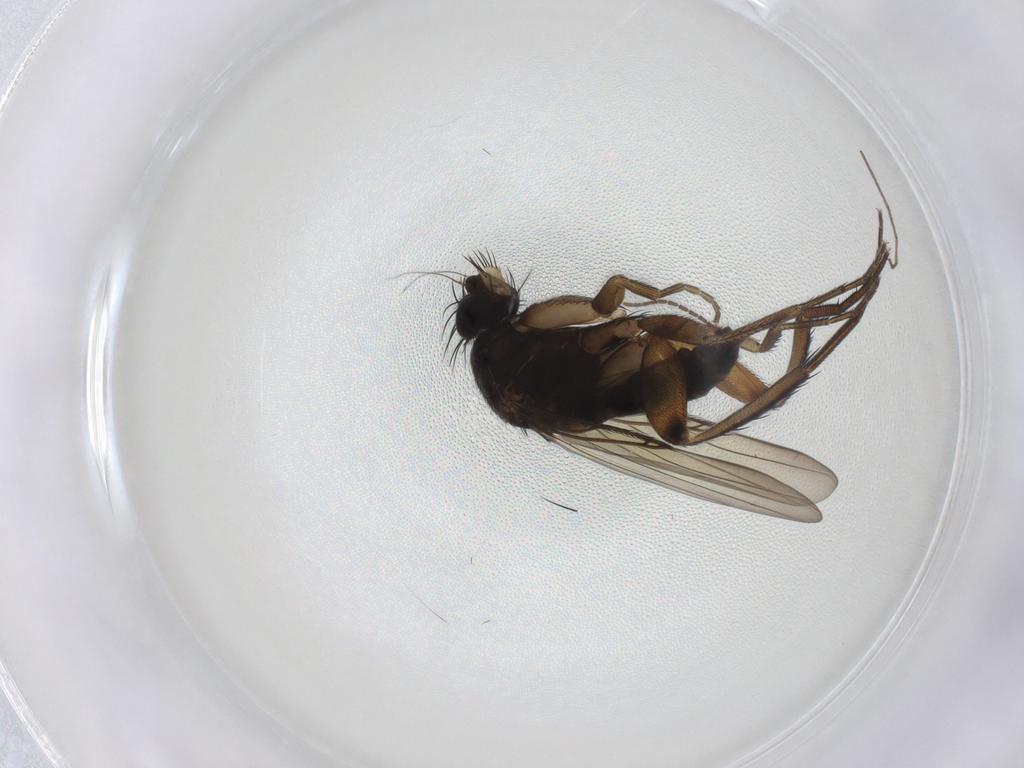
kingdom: Animalia
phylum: Arthropoda
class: Insecta
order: Diptera
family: Phoridae
